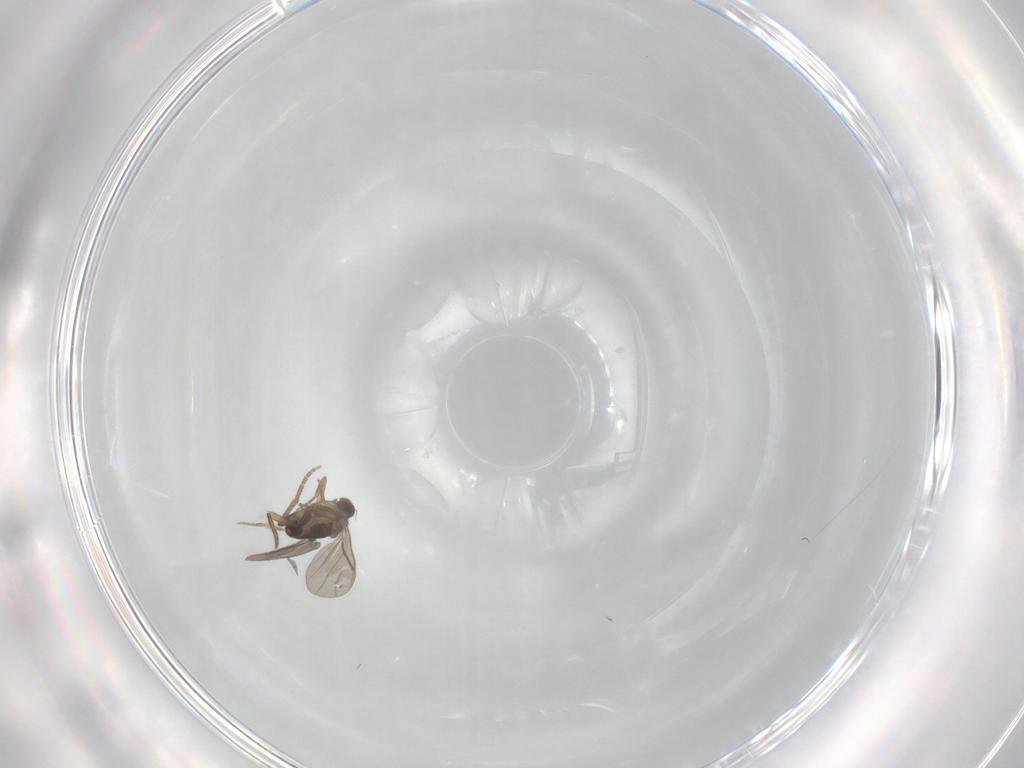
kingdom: Animalia
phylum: Arthropoda
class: Insecta
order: Diptera
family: Phoridae
